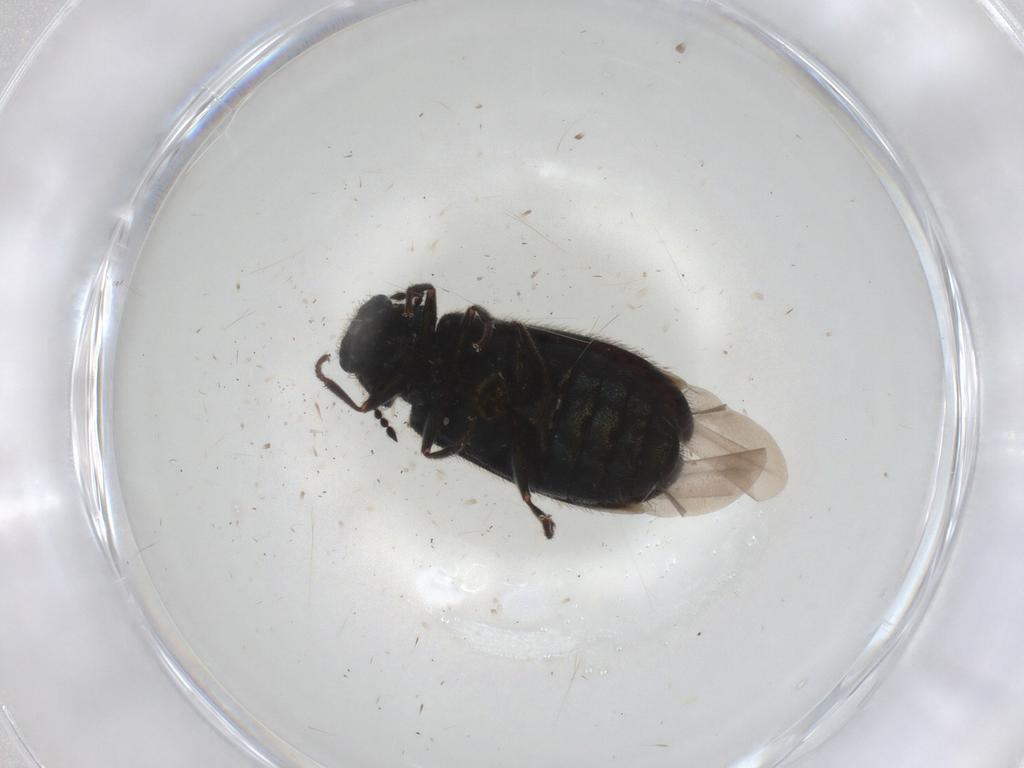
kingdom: Animalia
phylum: Arthropoda
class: Insecta
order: Coleoptera
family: Melyridae
